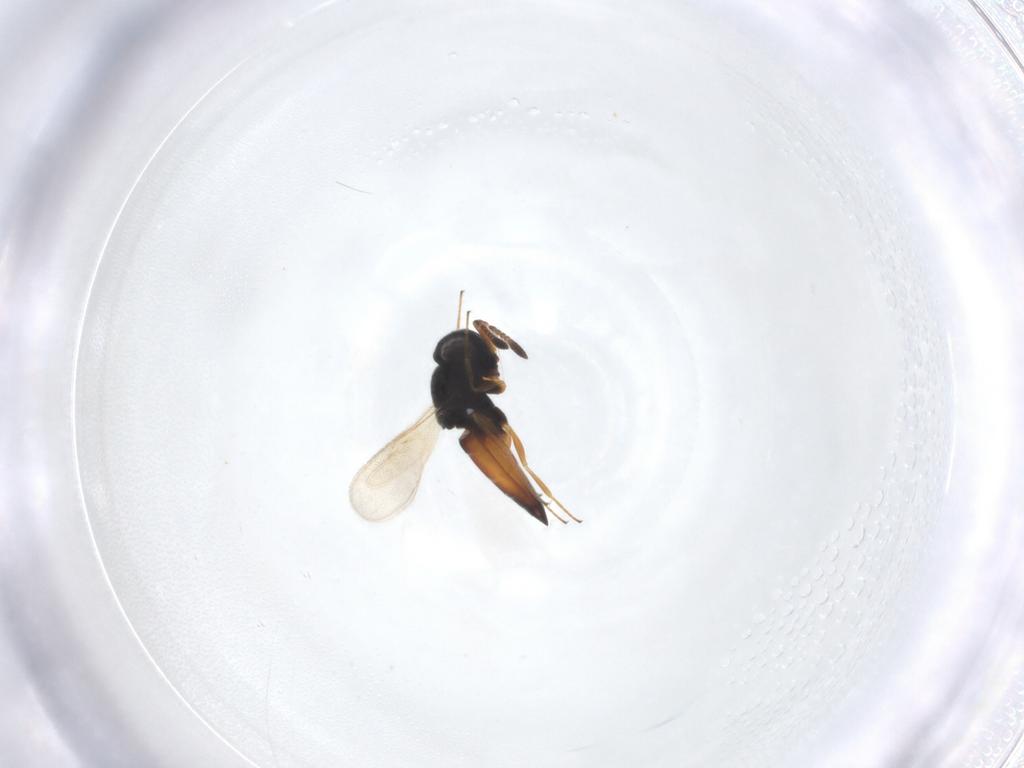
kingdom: Animalia
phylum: Arthropoda
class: Insecta
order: Hymenoptera
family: Scelionidae
